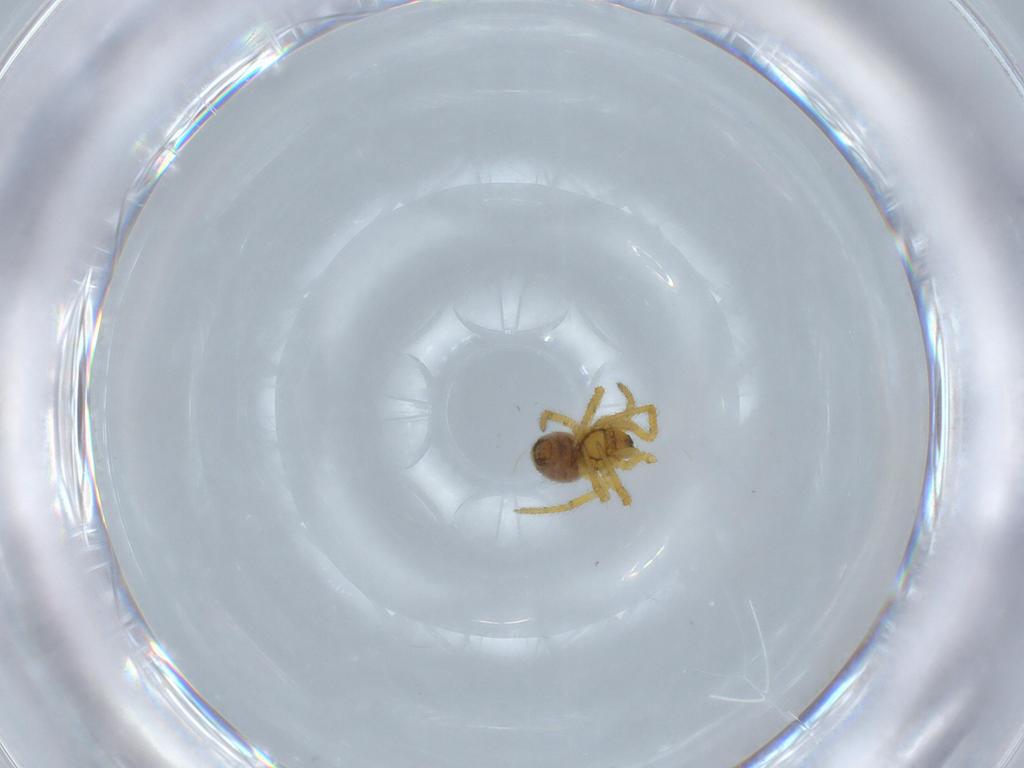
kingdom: Animalia
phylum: Arthropoda
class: Arachnida
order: Araneae
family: Theridiidae
